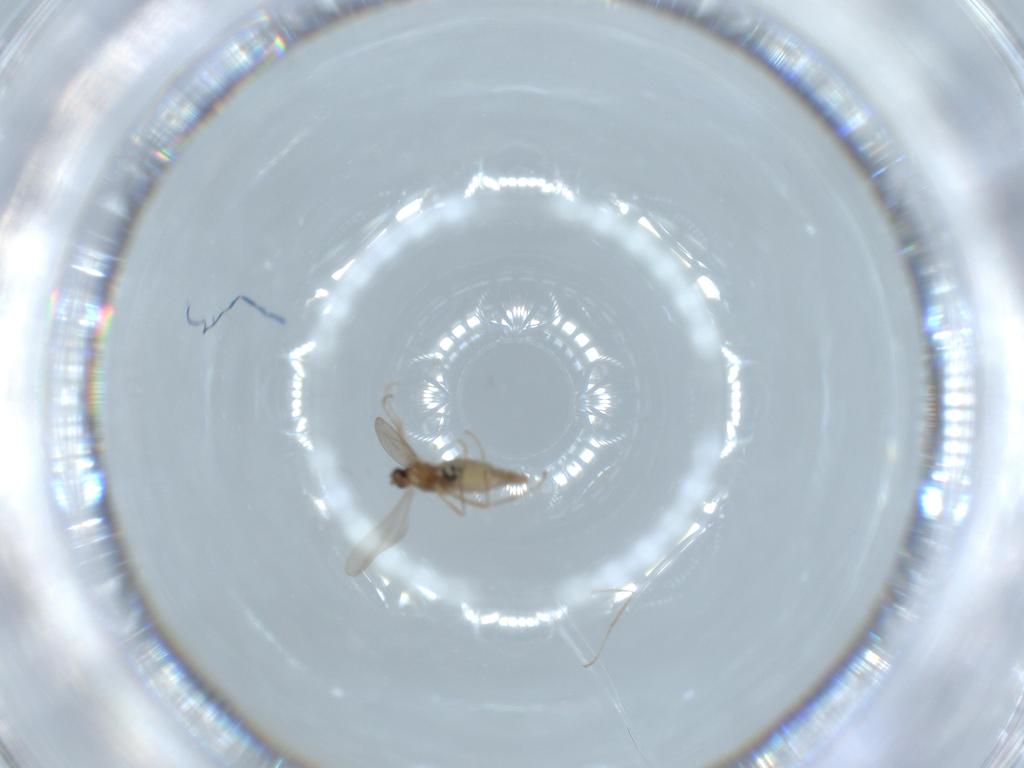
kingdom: Animalia
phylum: Arthropoda
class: Insecta
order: Diptera
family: Cecidomyiidae
